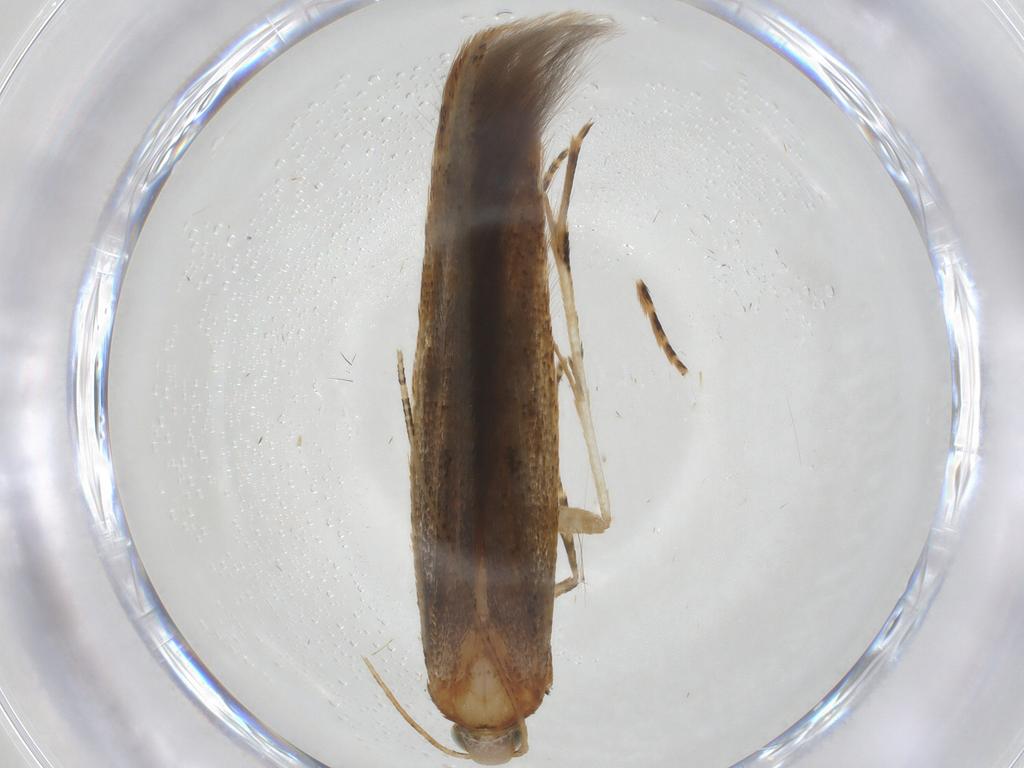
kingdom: Animalia
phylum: Arthropoda
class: Insecta
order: Lepidoptera
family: Batrachedridae
